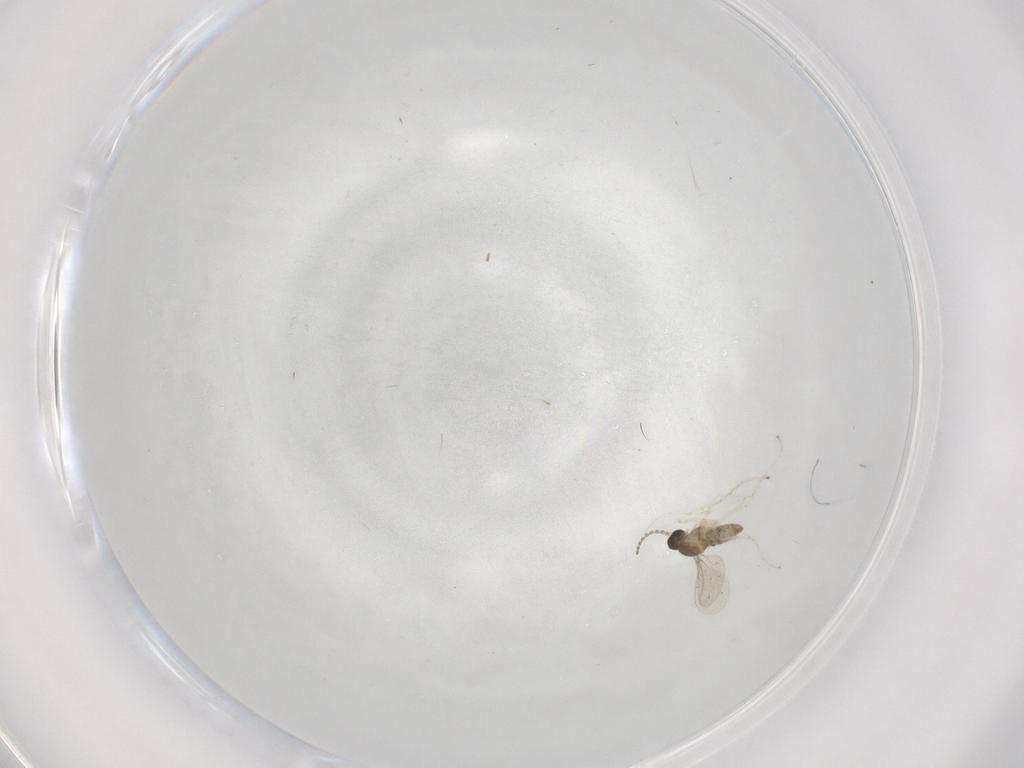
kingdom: Animalia
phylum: Arthropoda
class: Insecta
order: Diptera
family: Cecidomyiidae
